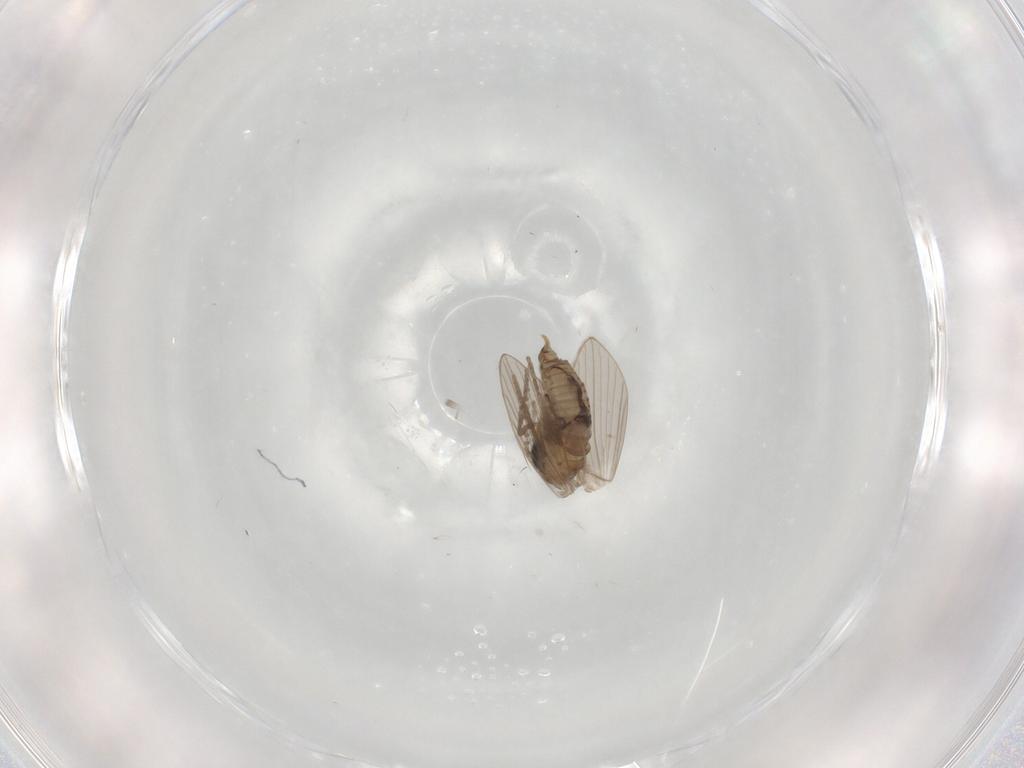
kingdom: Animalia
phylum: Arthropoda
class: Insecta
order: Diptera
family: Psychodidae
